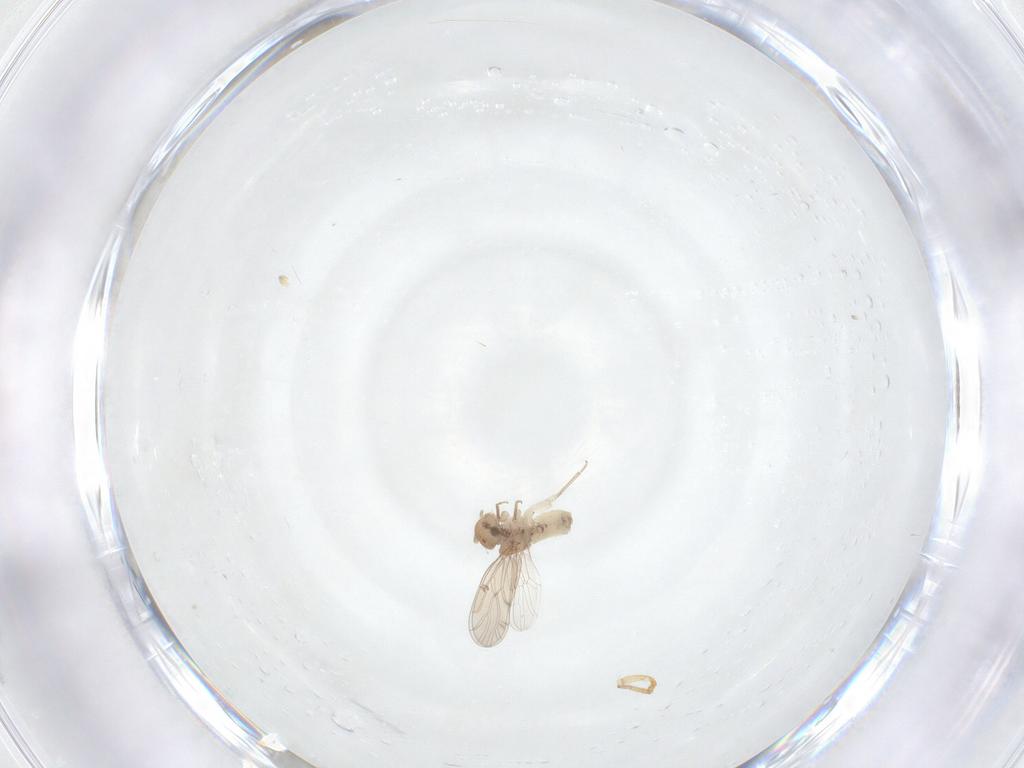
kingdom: Animalia
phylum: Arthropoda
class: Insecta
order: Psocodea
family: Ectopsocidae
